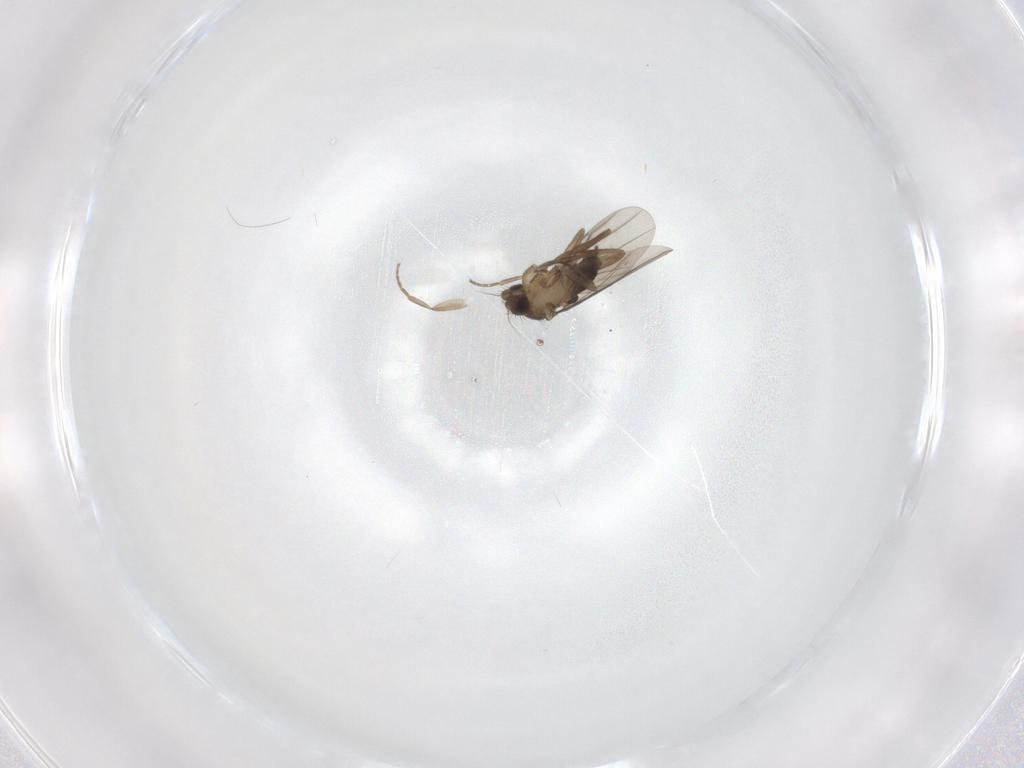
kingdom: Animalia
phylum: Arthropoda
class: Insecta
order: Diptera
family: Phoridae
